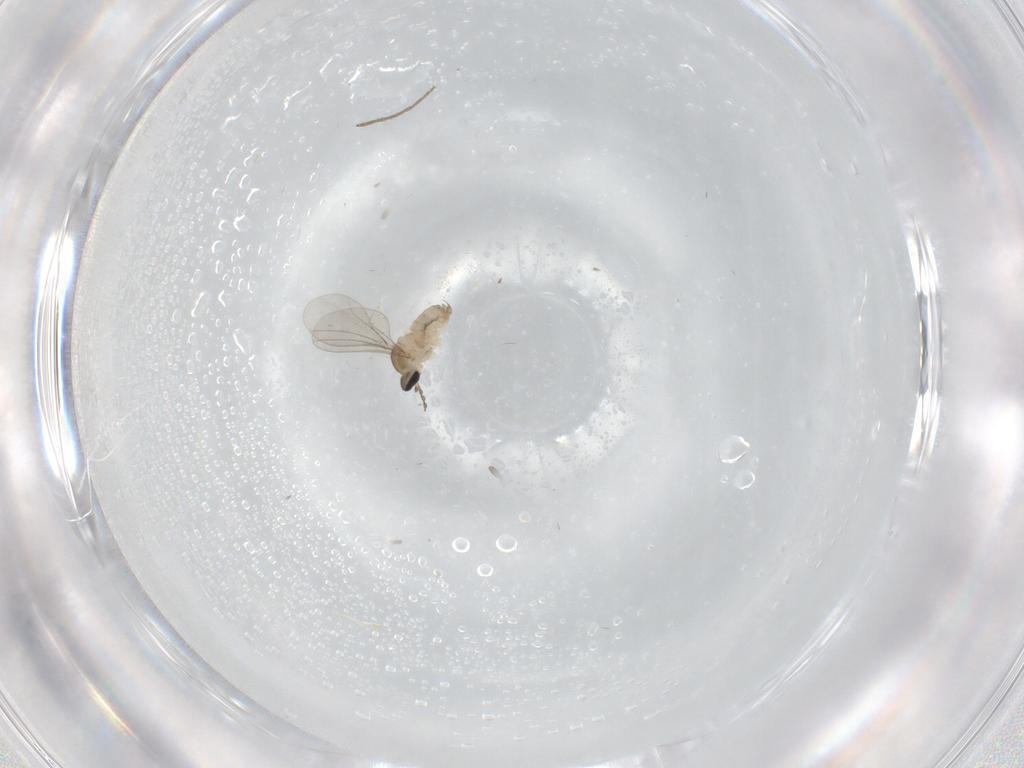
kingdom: Animalia
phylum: Arthropoda
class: Insecta
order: Diptera
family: Cecidomyiidae
